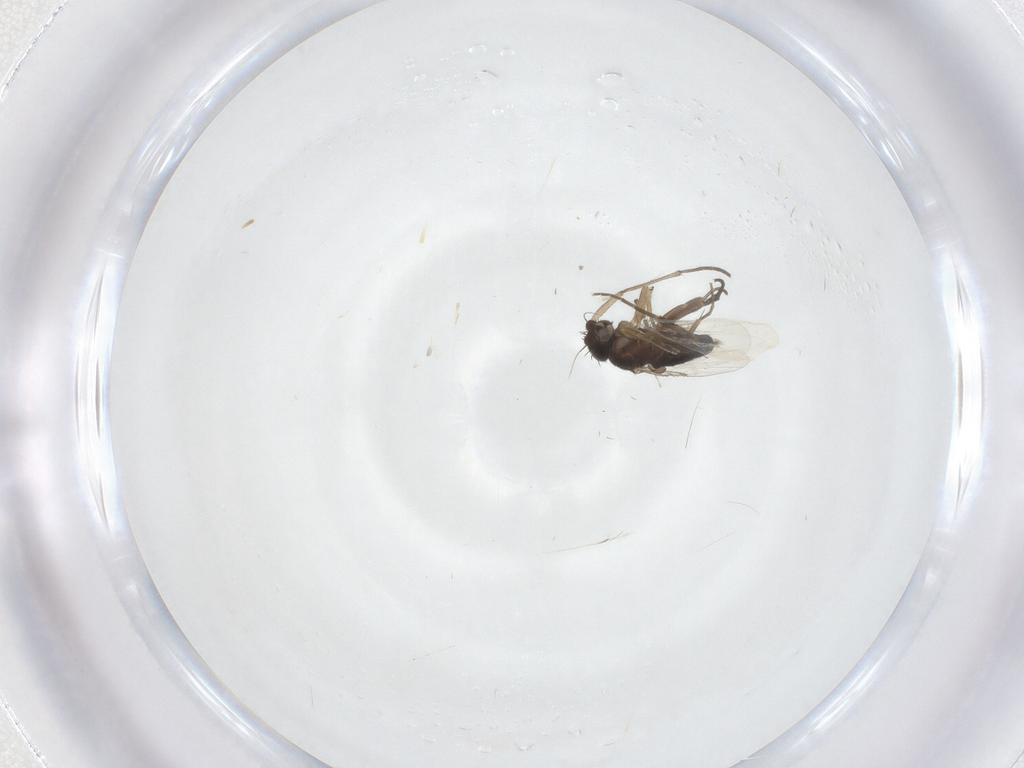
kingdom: Animalia
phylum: Arthropoda
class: Insecta
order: Diptera
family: Phoridae
